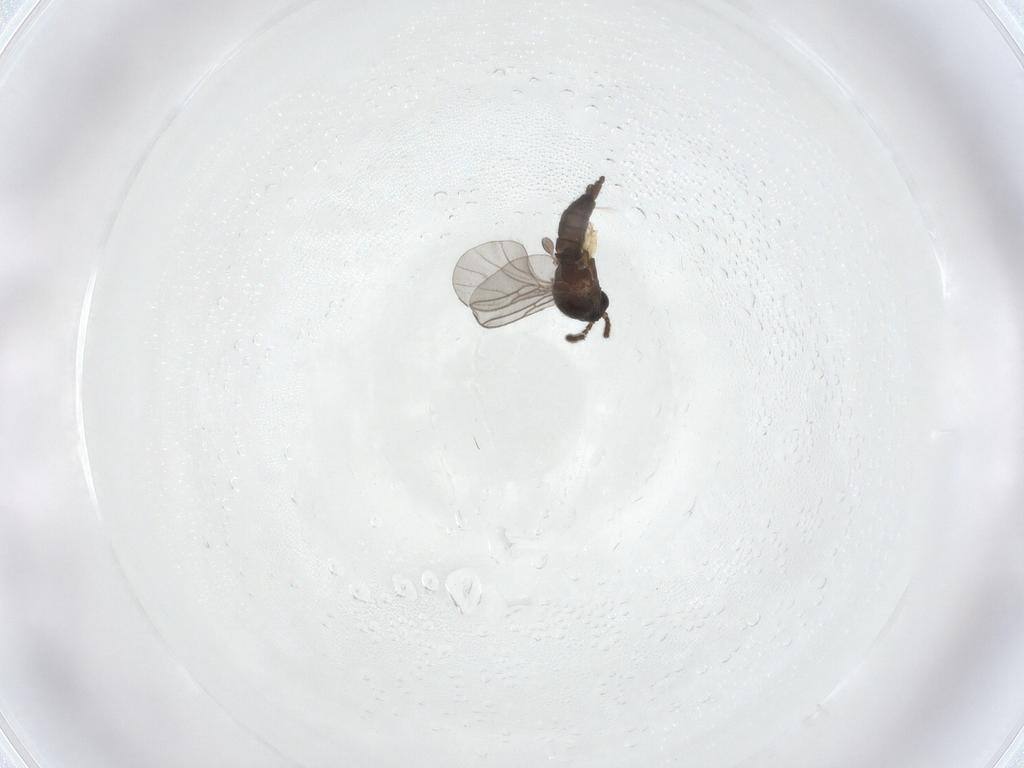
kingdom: Animalia
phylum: Arthropoda
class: Insecta
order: Diptera
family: Sciaridae
